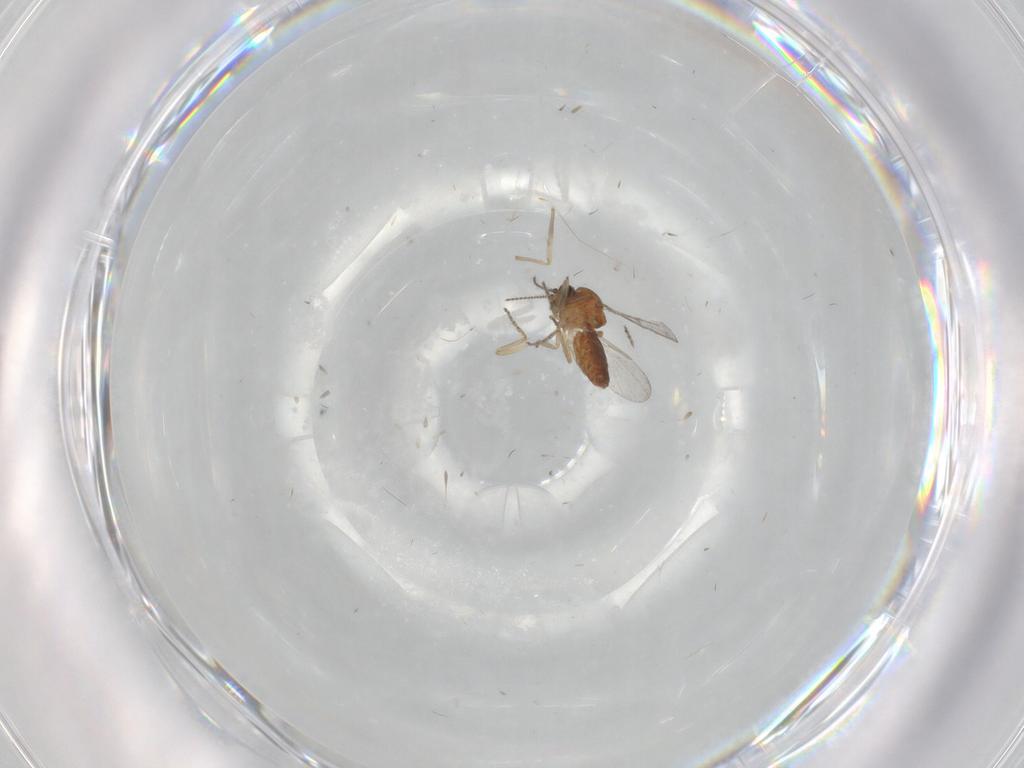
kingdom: Animalia
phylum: Arthropoda
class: Insecta
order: Diptera
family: Ceratopogonidae
